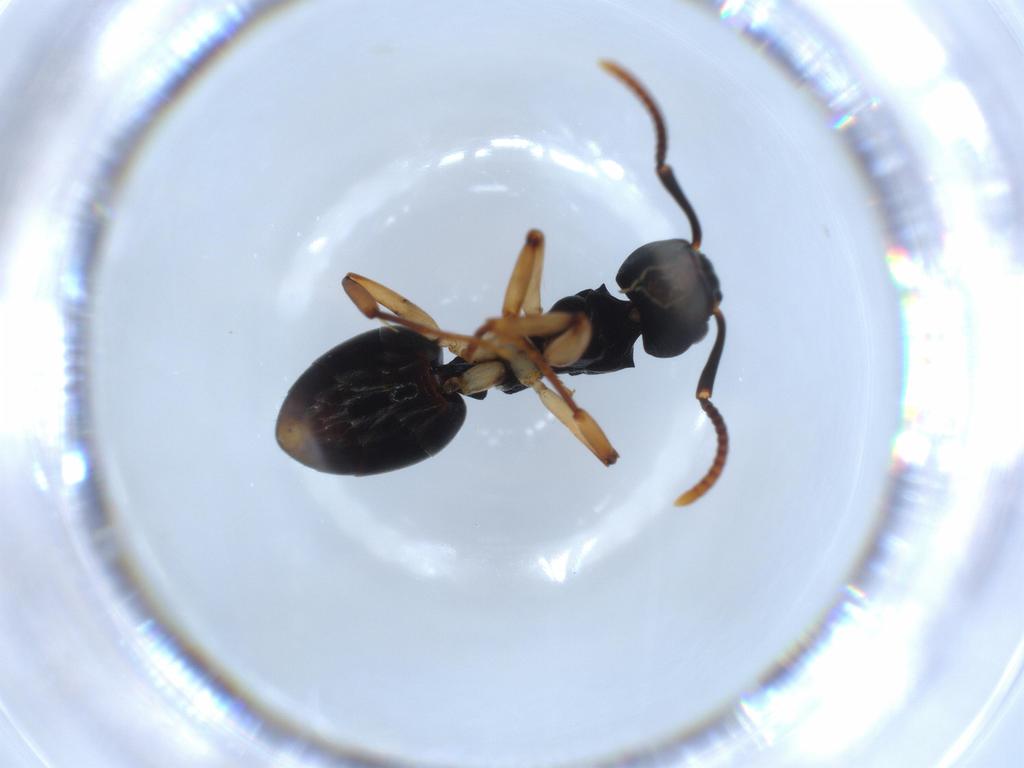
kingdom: Animalia
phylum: Arthropoda
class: Insecta
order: Hymenoptera
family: Formicidae
